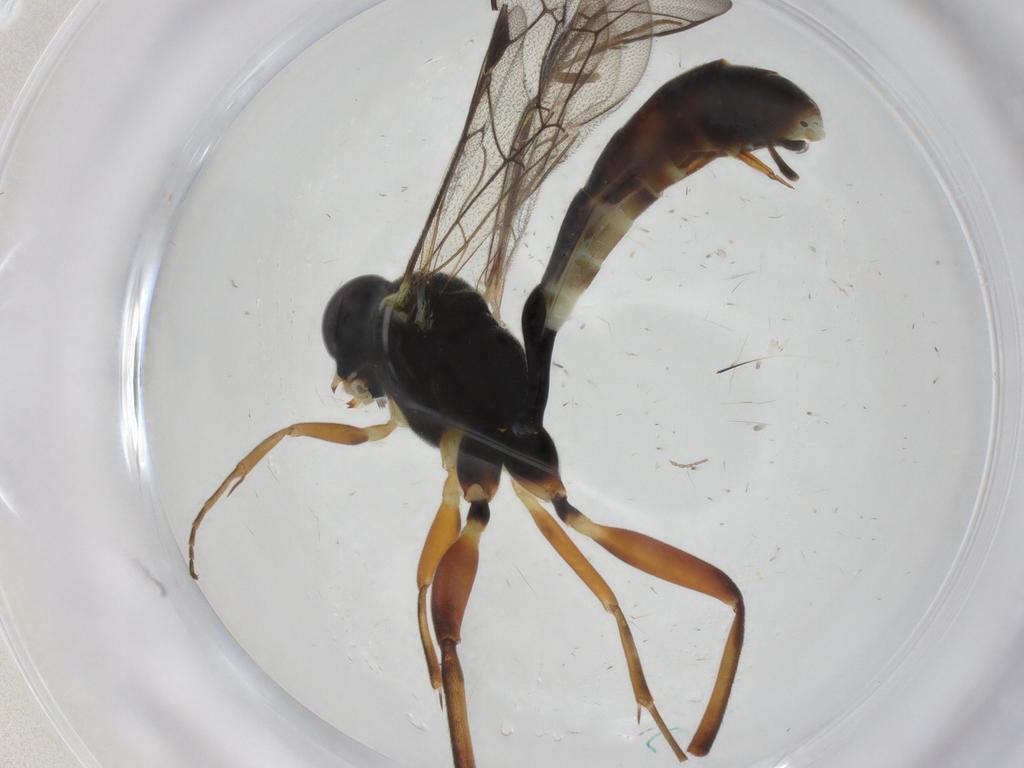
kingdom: Animalia
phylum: Arthropoda
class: Insecta
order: Hymenoptera
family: Ichneumonidae
